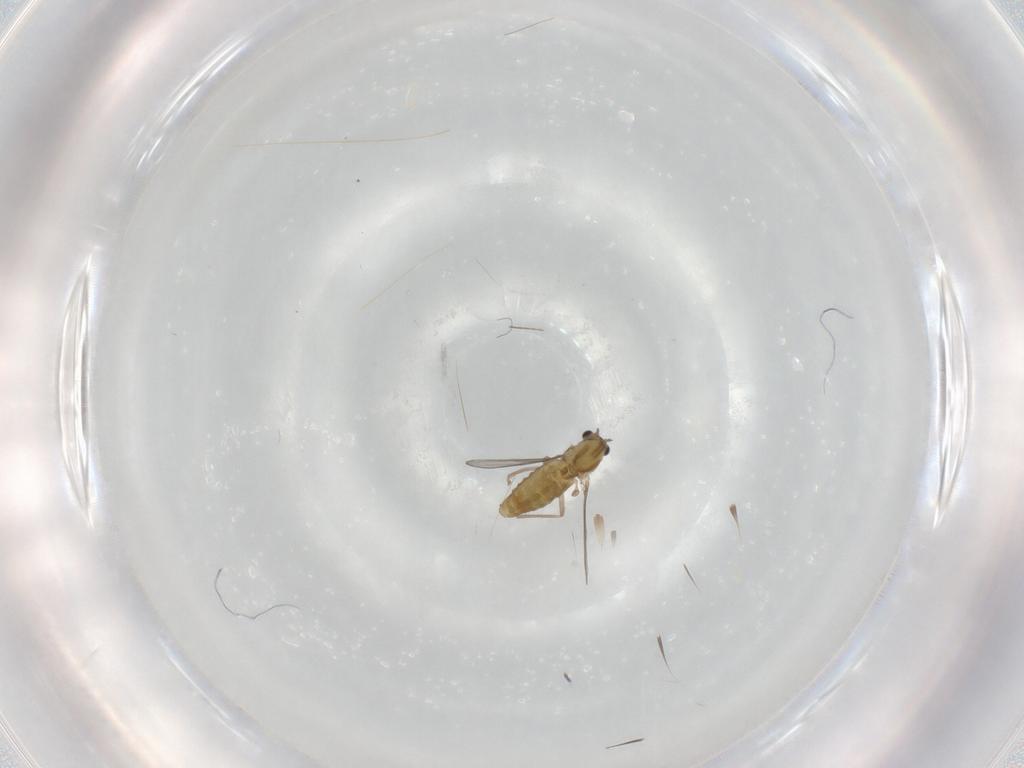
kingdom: Animalia
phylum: Arthropoda
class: Insecta
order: Diptera
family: Chironomidae
